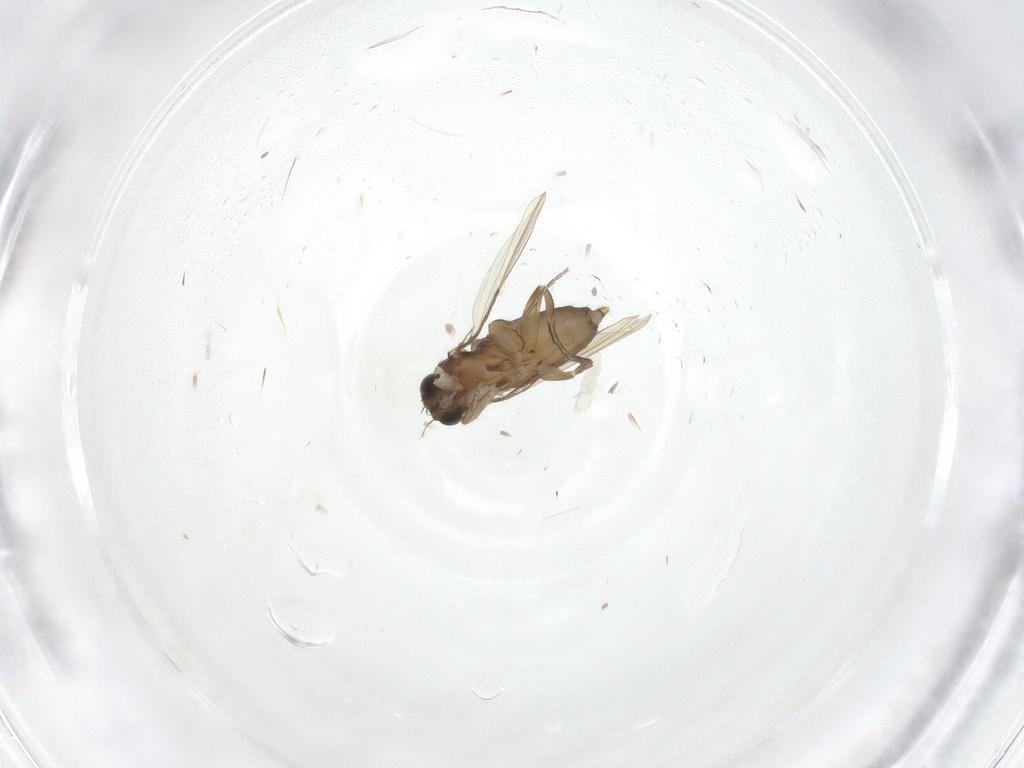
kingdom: Animalia
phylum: Arthropoda
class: Insecta
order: Diptera
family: Phoridae
